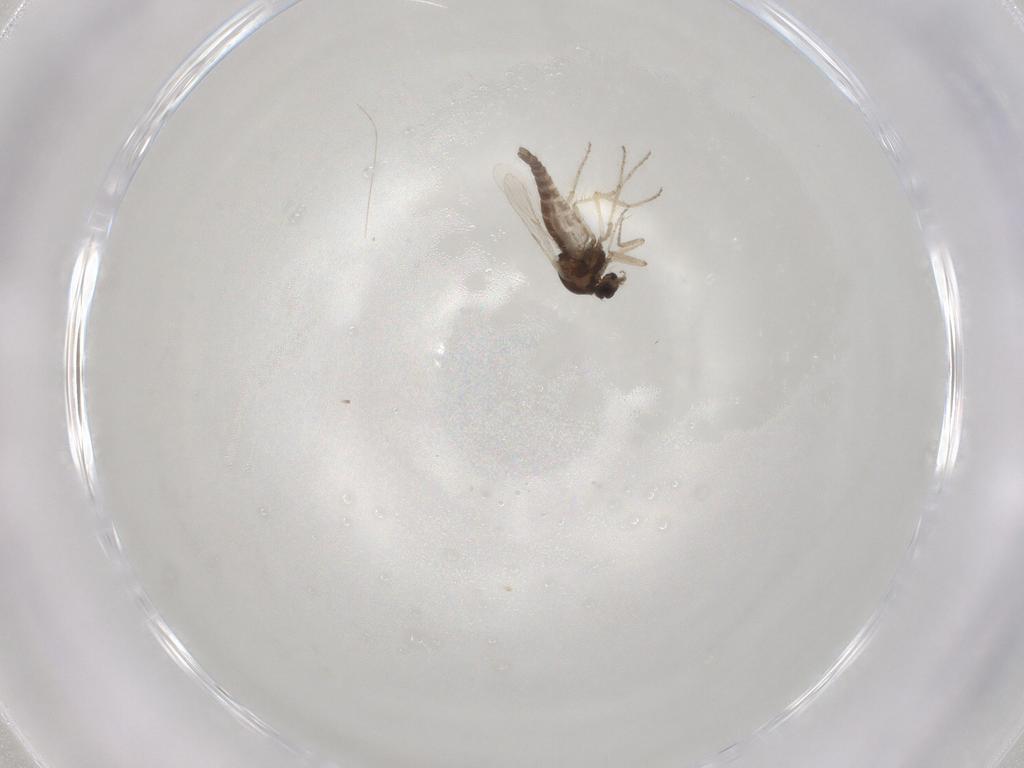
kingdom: Animalia
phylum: Arthropoda
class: Insecta
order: Diptera
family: Ceratopogonidae
